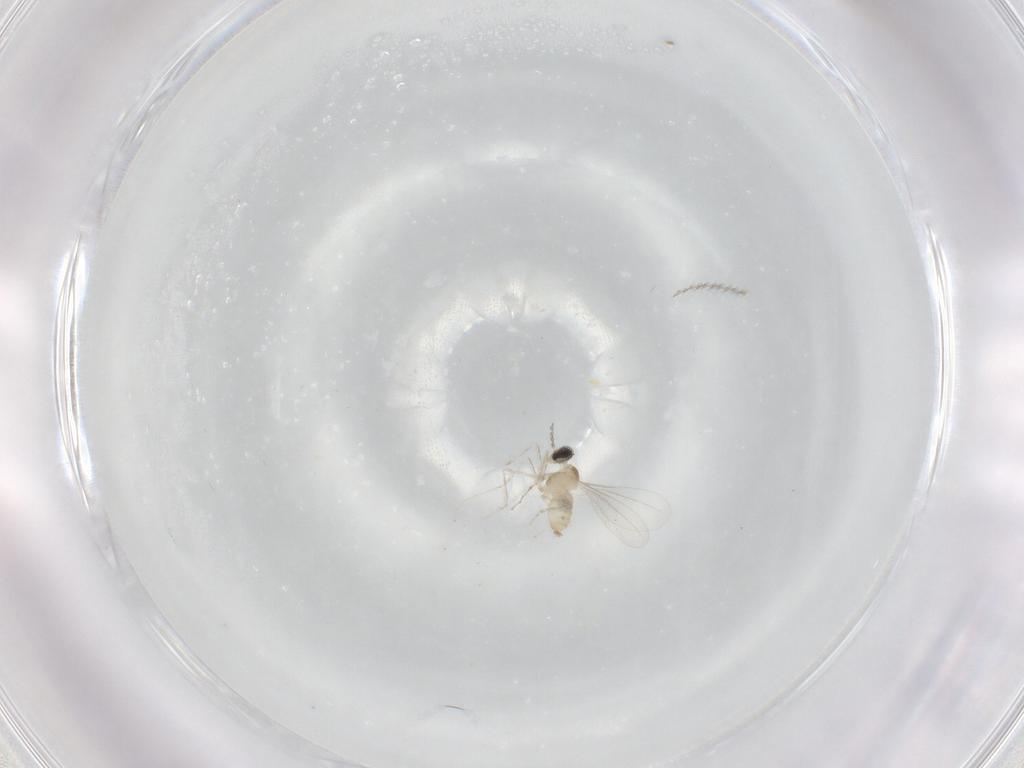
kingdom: Animalia
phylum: Arthropoda
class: Insecta
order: Diptera
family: Cecidomyiidae
